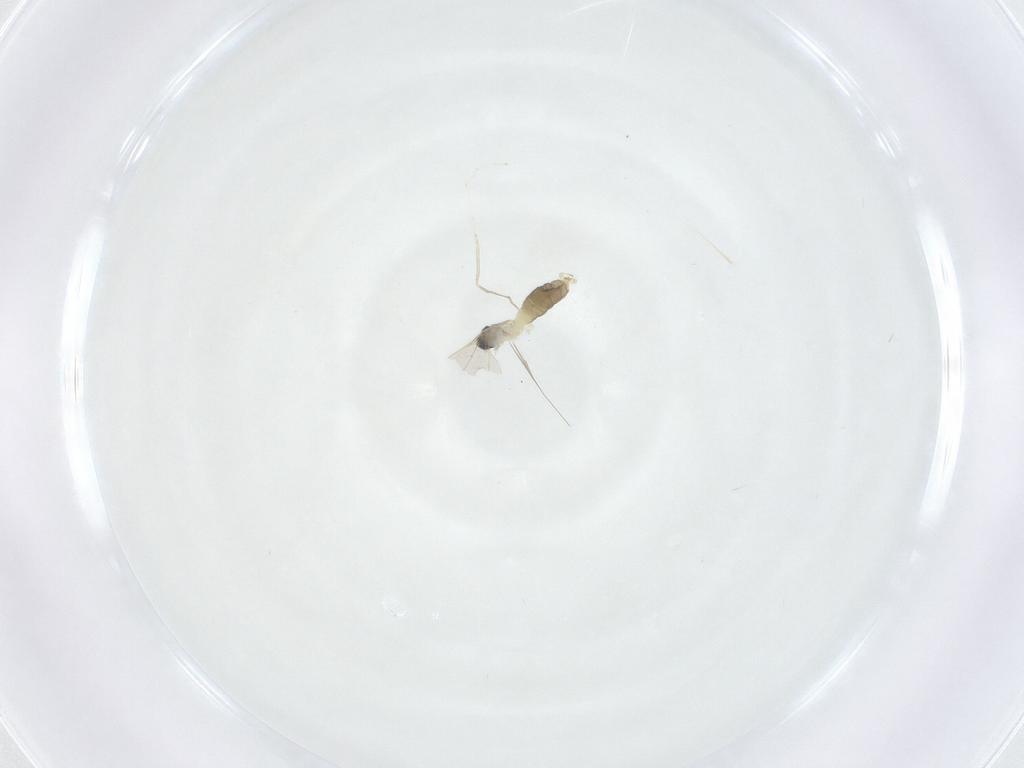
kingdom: Animalia
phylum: Arthropoda
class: Insecta
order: Diptera
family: Cecidomyiidae
